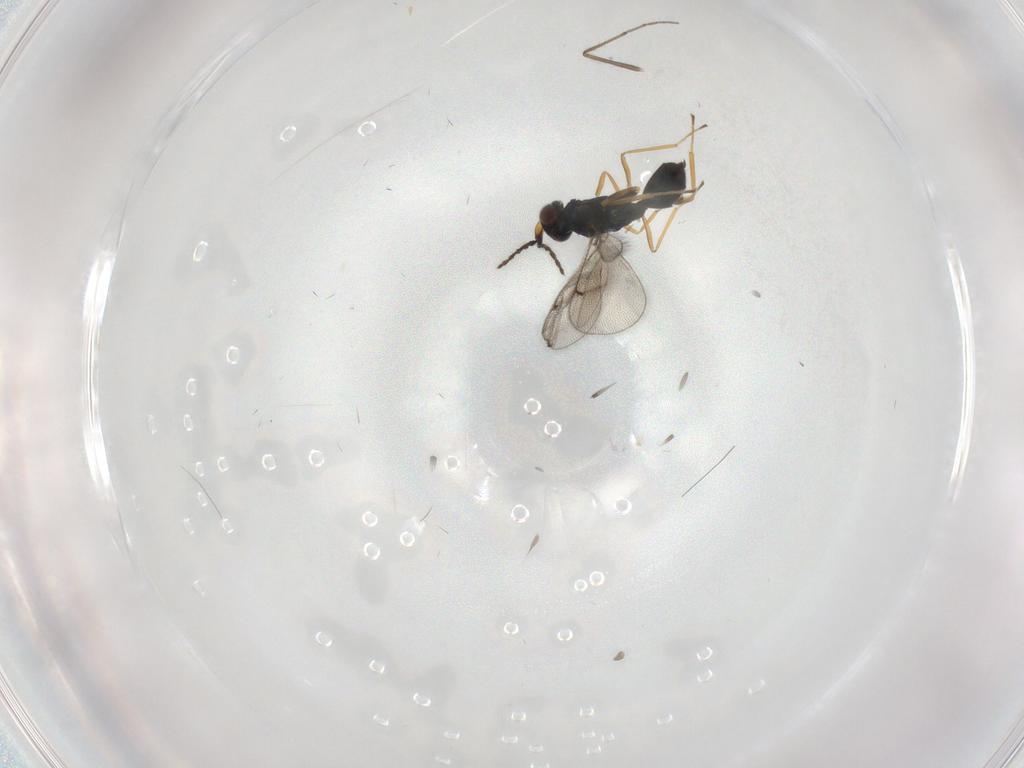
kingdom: Animalia
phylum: Arthropoda
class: Insecta
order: Hymenoptera
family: Eulophidae
